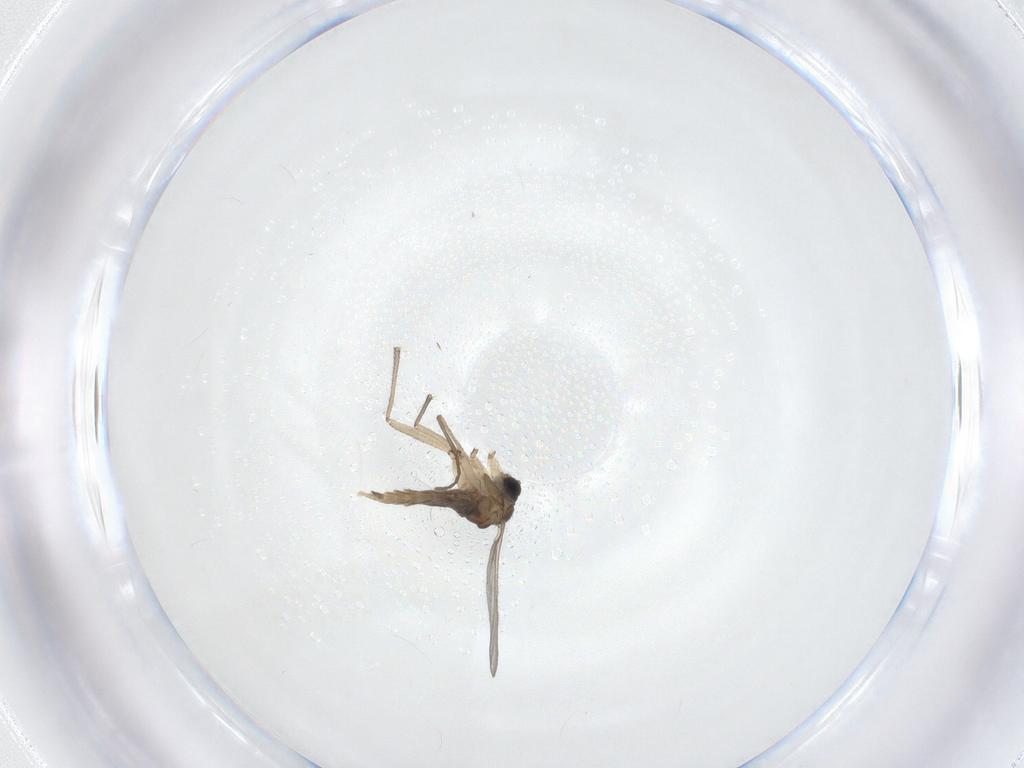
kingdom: Animalia
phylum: Arthropoda
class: Insecta
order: Diptera
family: Sciaridae
